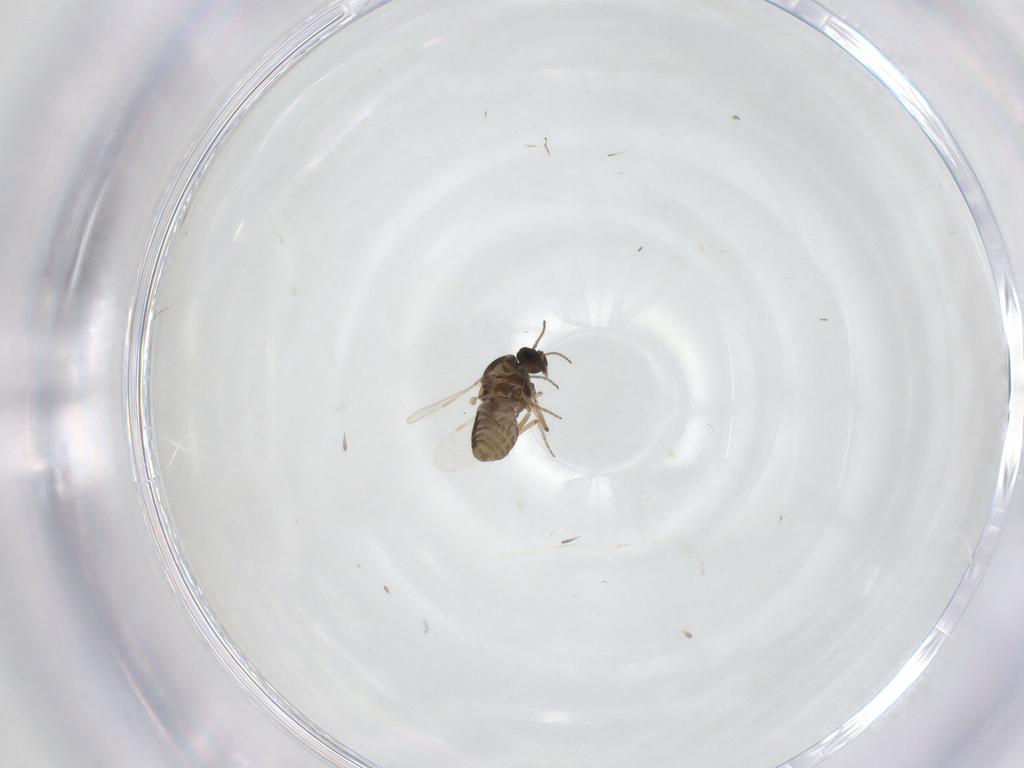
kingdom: Animalia
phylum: Arthropoda
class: Insecta
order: Diptera
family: Ceratopogonidae
